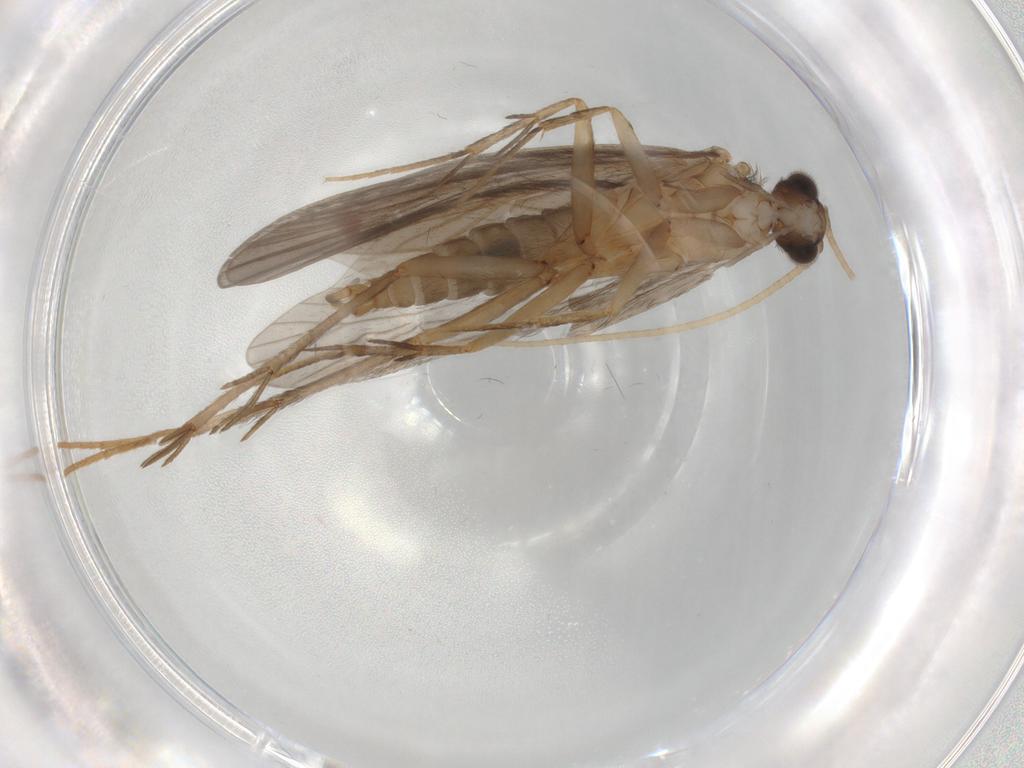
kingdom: Animalia
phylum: Arthropoda
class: Insecta
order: Trichoptera
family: Philopotamidae
